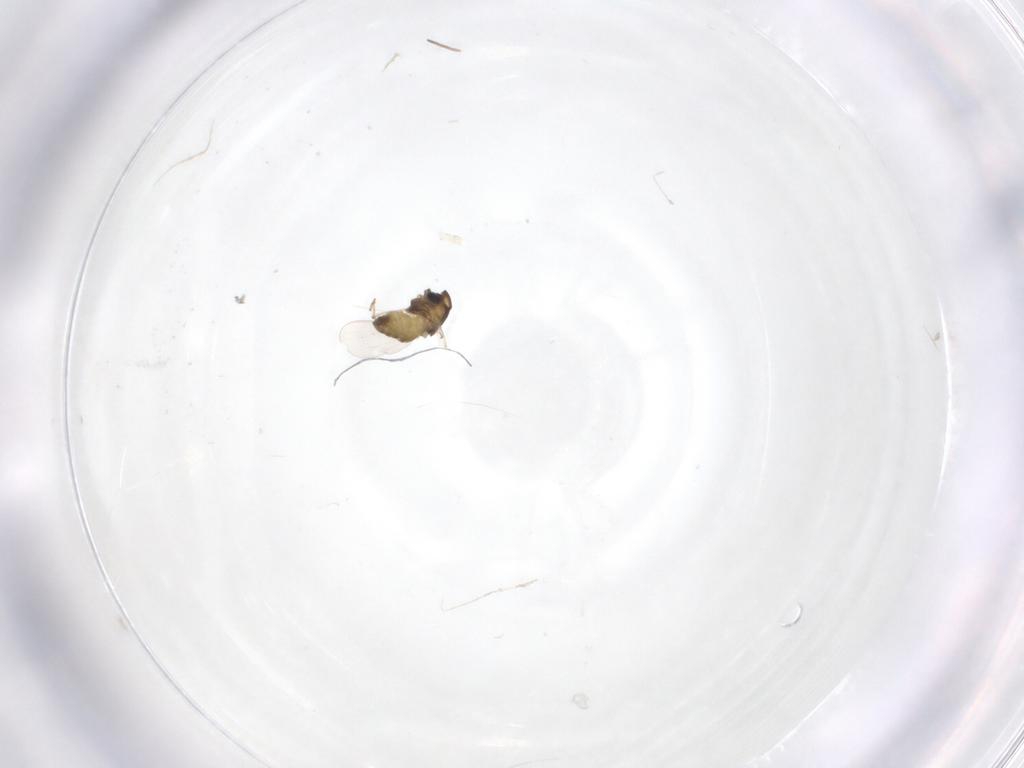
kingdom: Animalia
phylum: Arthropoda
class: Insecta
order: Diptera
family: Chironomidae
